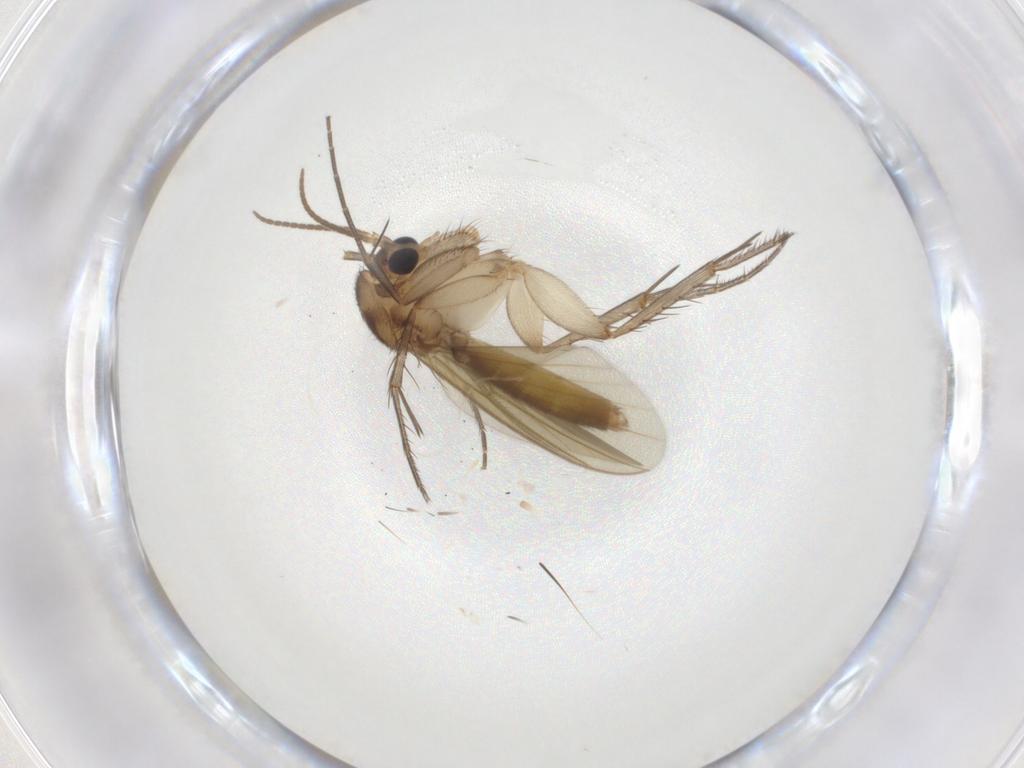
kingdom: Animalia
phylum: Arthropoda
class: Insecta
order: Diptera
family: Mycetophilidae
